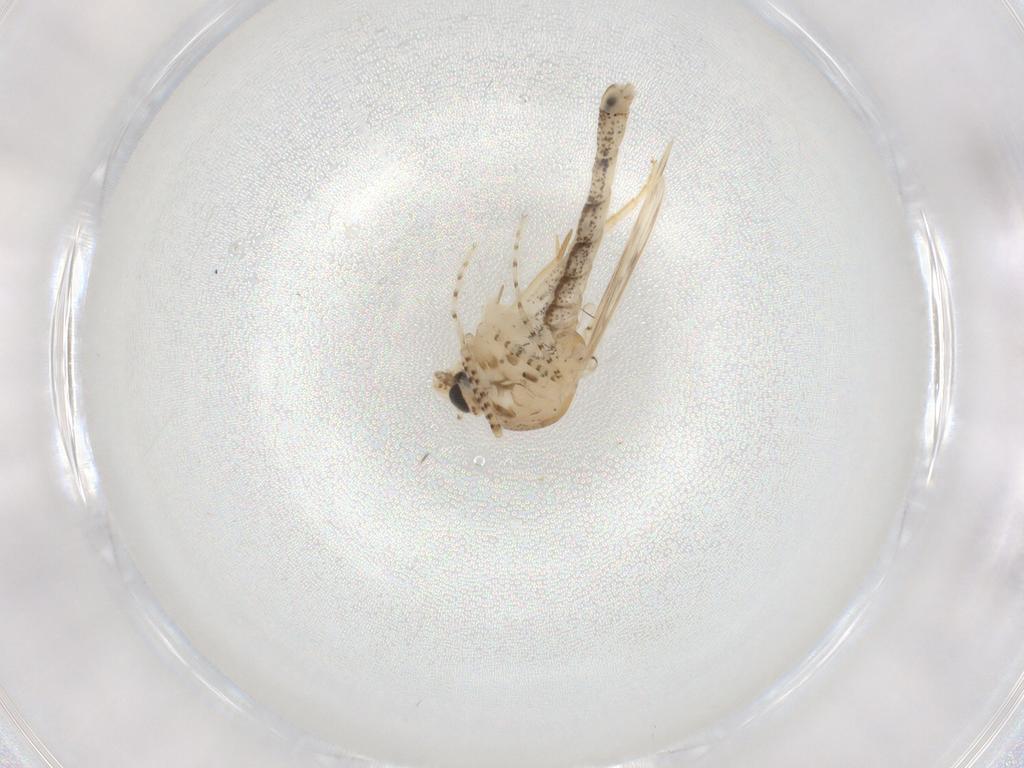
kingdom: Animalia
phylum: Arthropoda
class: Insecta
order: Diptera
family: Chaoboridae
